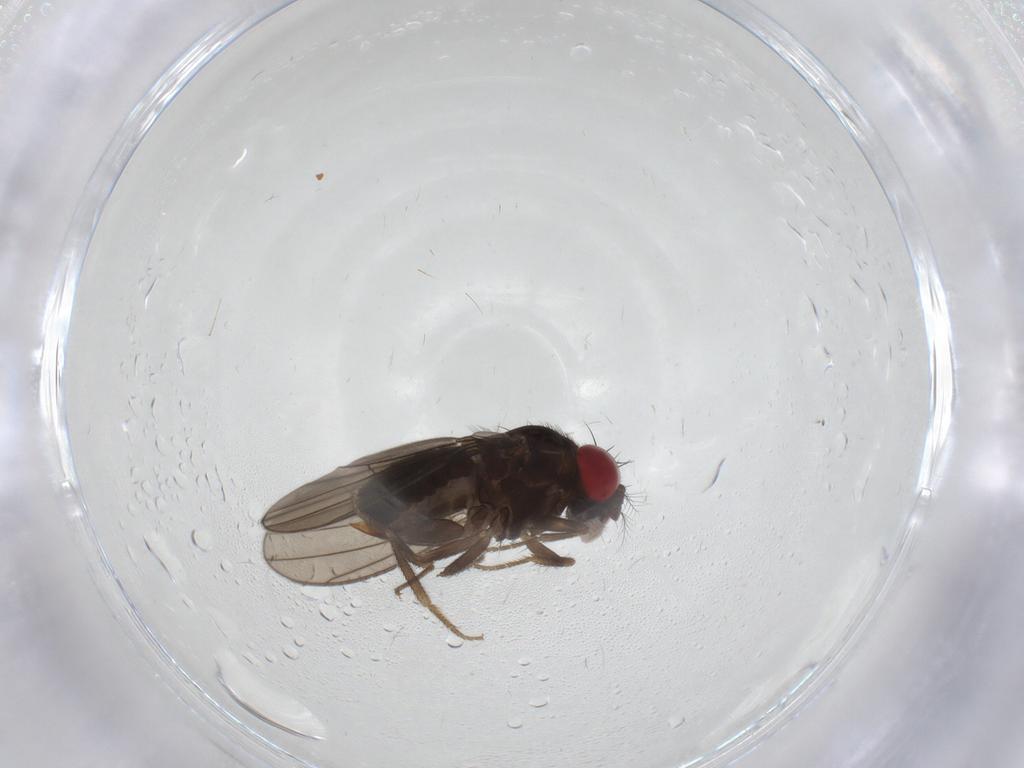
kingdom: Animalia
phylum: Arthropoda
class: Insecta
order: Diptera
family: Drosophilidae
